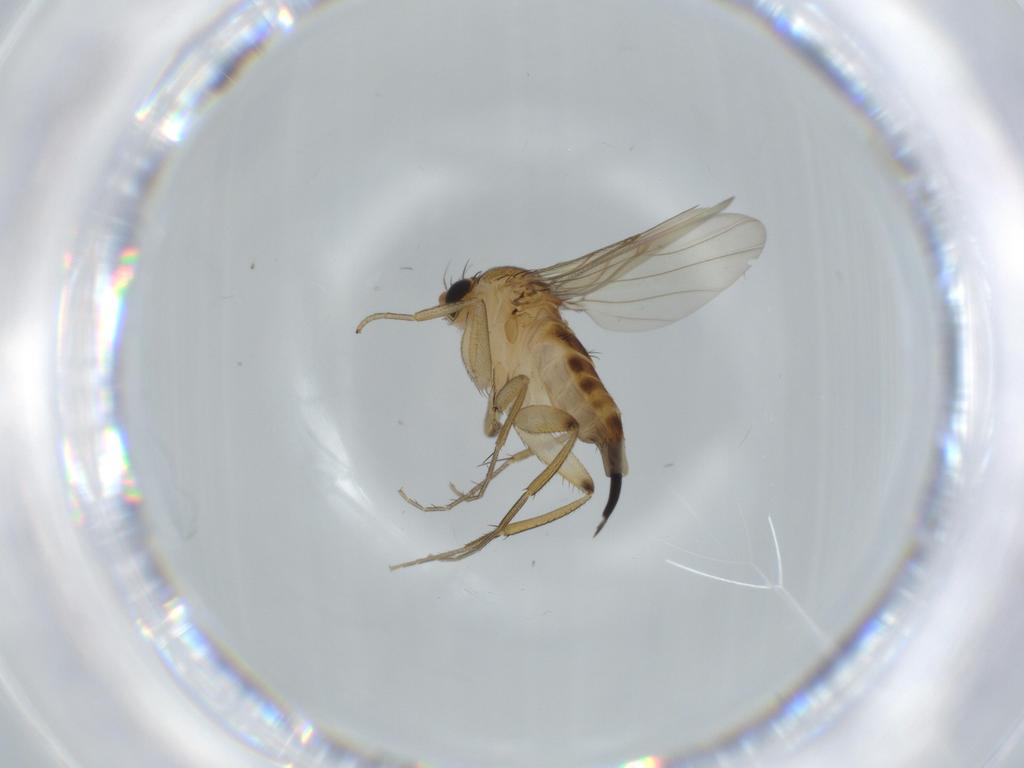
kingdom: Animalia
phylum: Arthropoda
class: Insecta
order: Diptera
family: Phoridae
